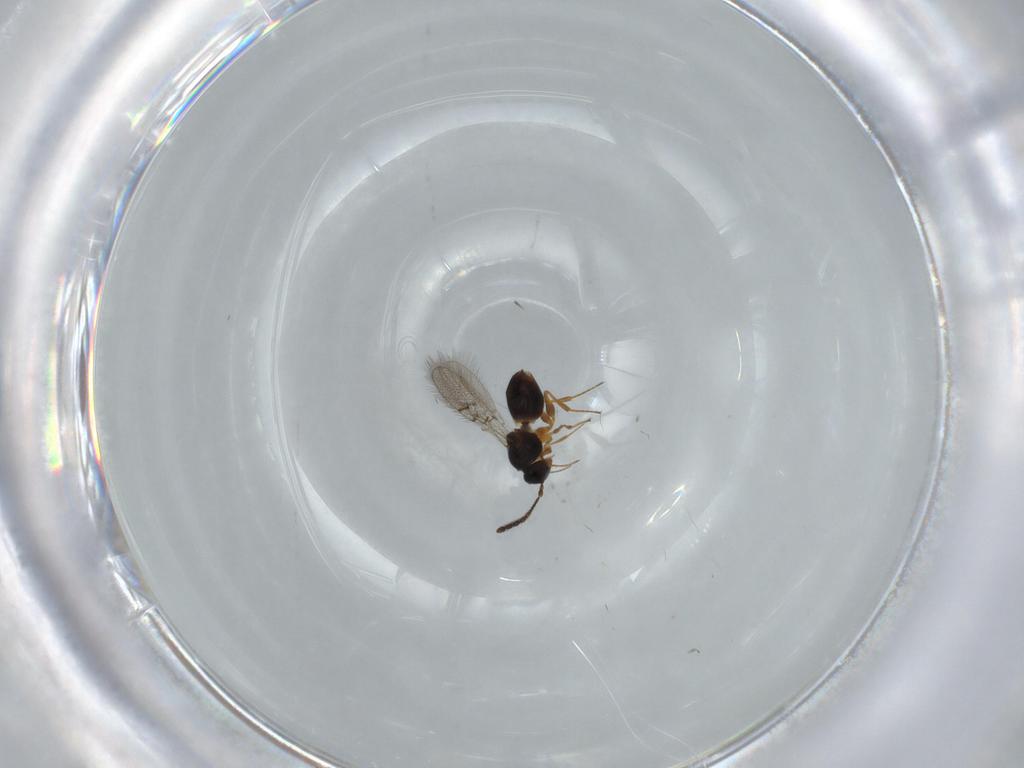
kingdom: Animalia
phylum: Arthropoda
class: Insecta
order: Hymenoptera
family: Figitidae
